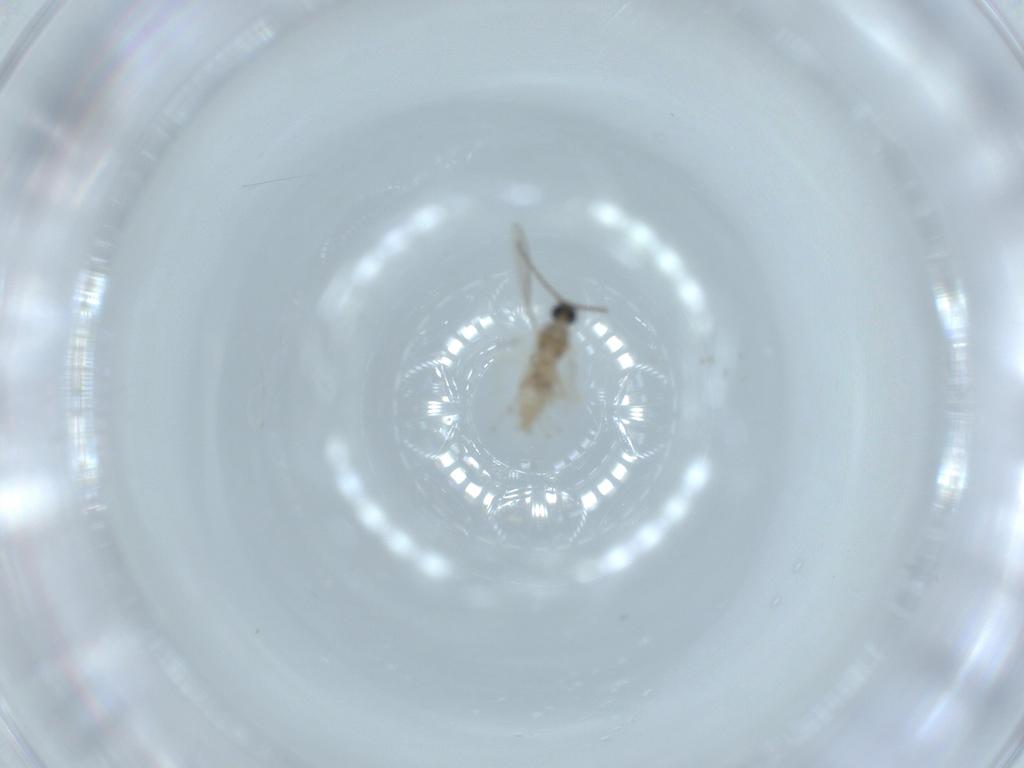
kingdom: Animalia
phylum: Arthropoda
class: Insecta
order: Diptera
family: Cecidomyiidae
